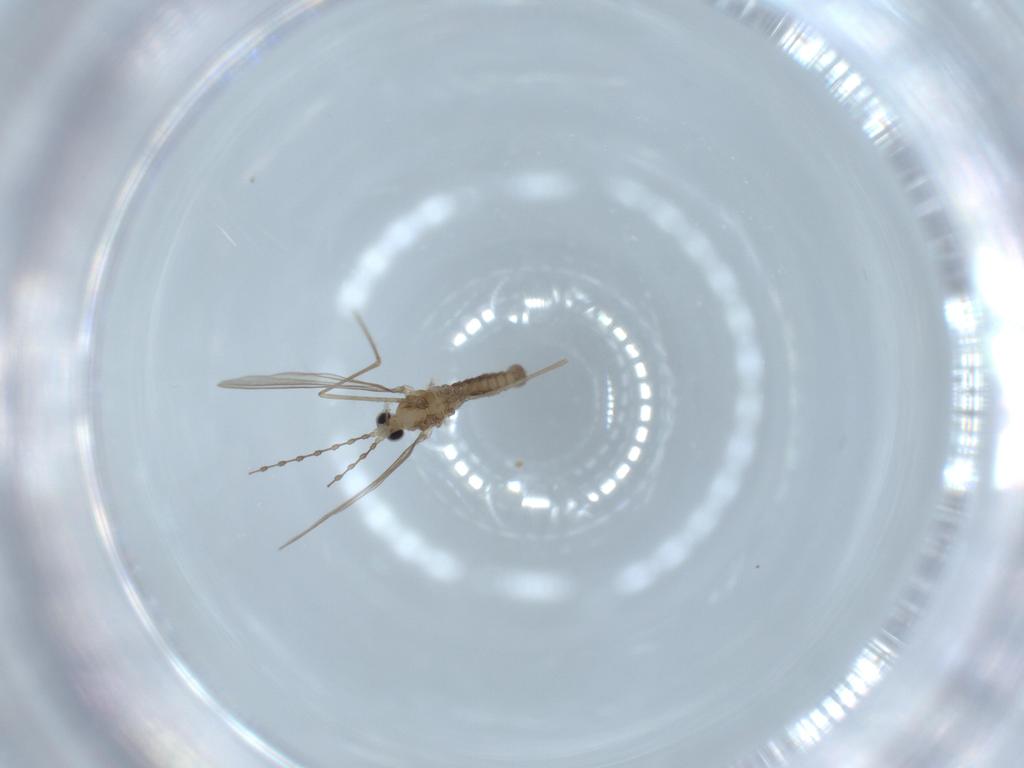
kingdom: Animalia
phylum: Arthropoda
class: Insecta
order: Diptera
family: Cecidomyiidae
